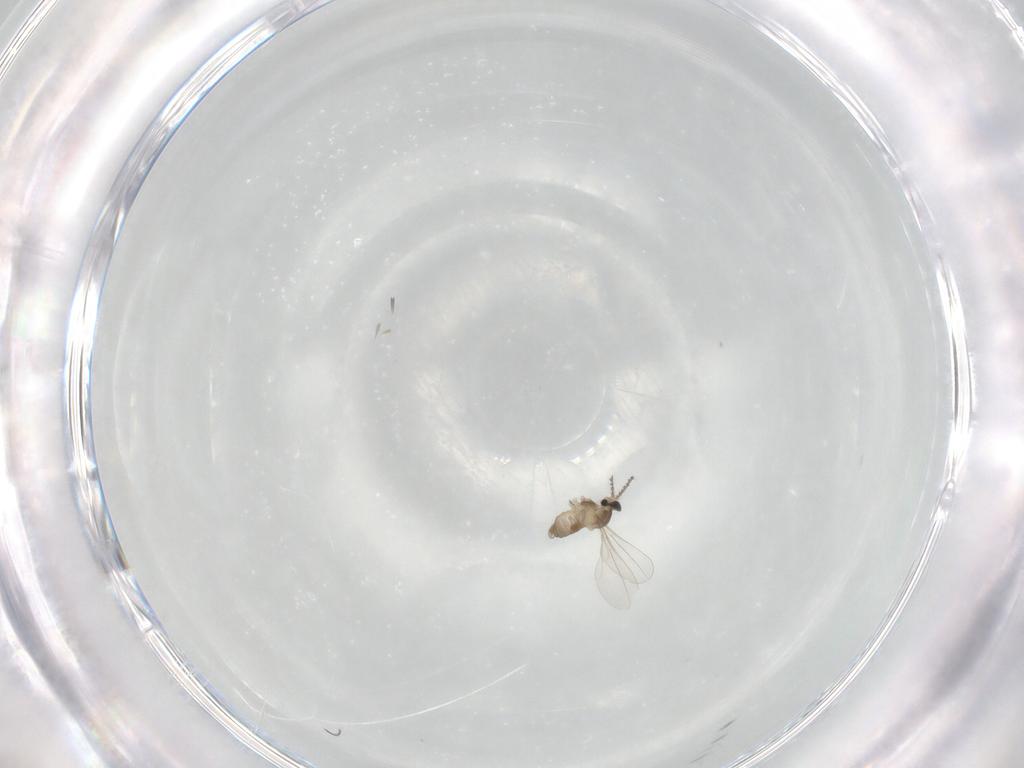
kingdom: Animalia
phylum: Arthropoda
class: Insecta
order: Diptera
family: Cecidomyiidae
